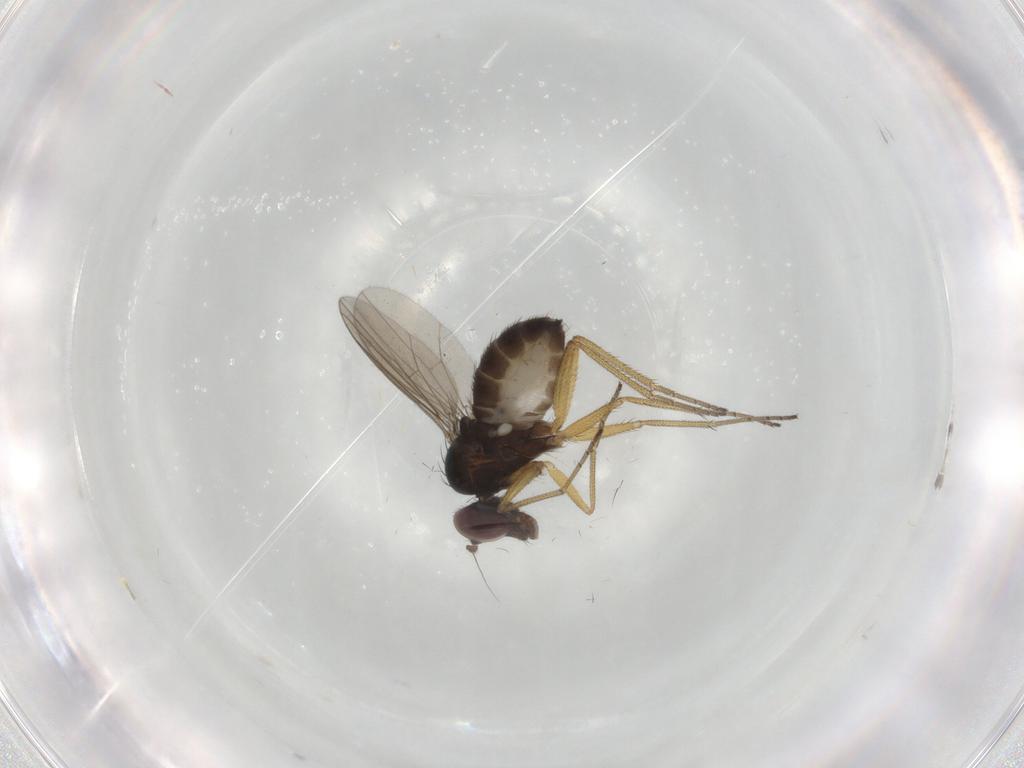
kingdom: Animalia
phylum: Arthropoda
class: Insecta
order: Diptera
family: Dolichopodidae
